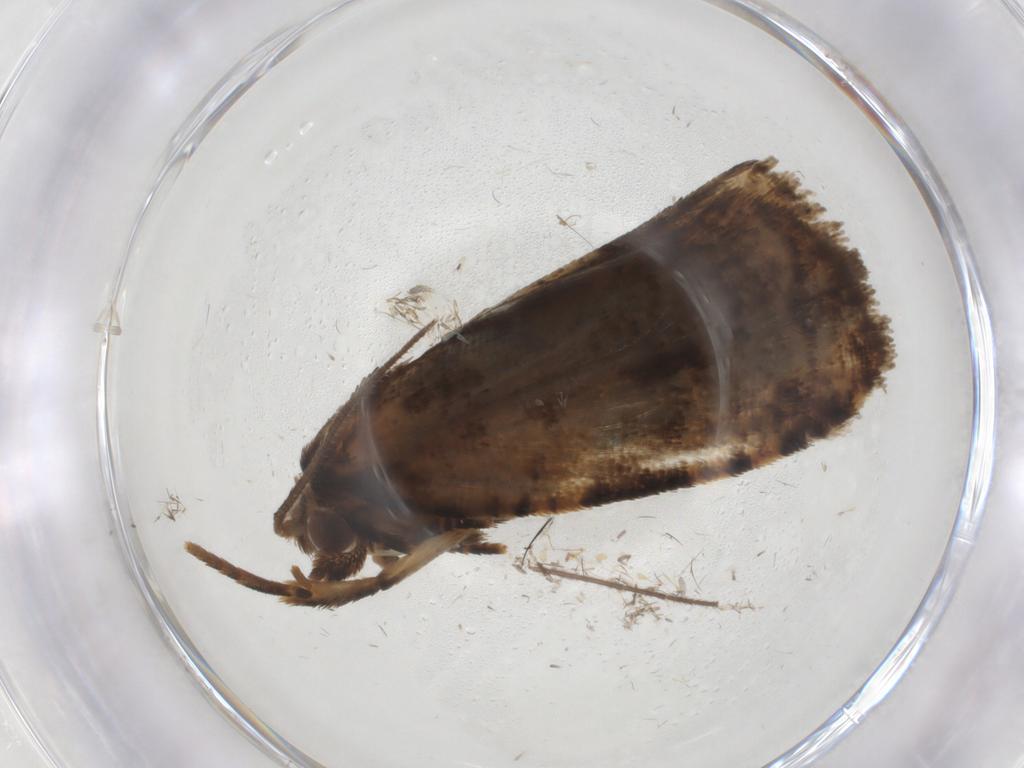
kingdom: Animalia
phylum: Arthropoda
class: Insecta
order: Lepidoptera
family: Tortricidae
